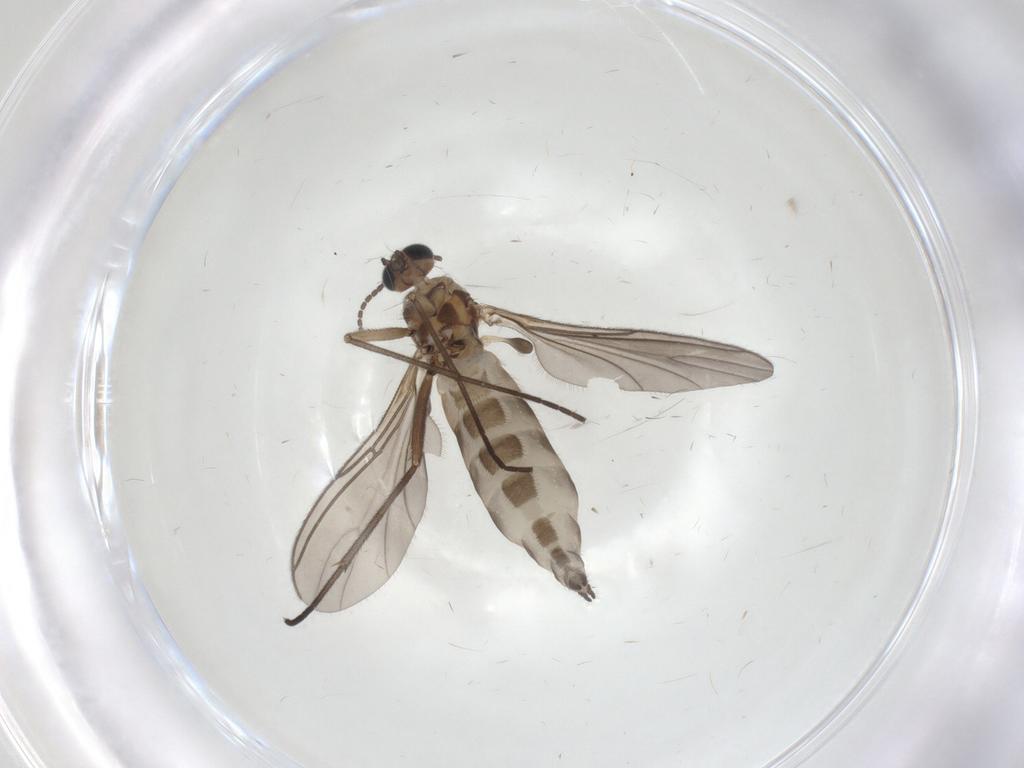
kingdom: Animalia
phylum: Arthropoda
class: Insecta
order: Diptera
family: Sciaridae
